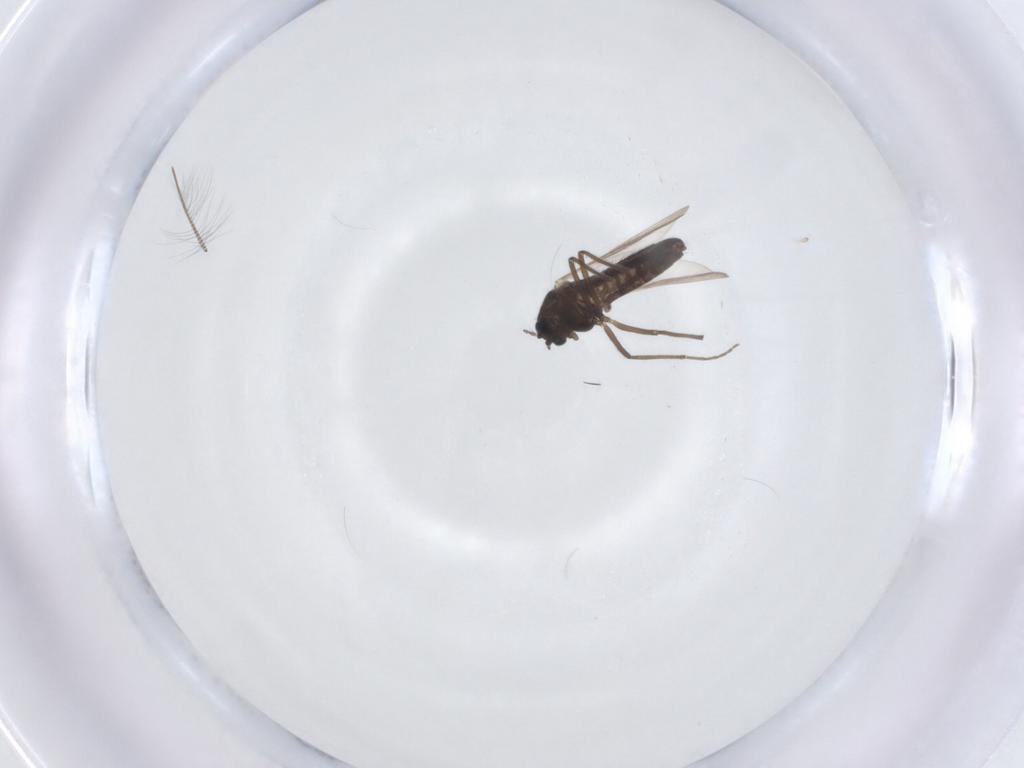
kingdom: Animalia
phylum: Arthropoda
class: Insecta
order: Diptera
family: Chironomidae
